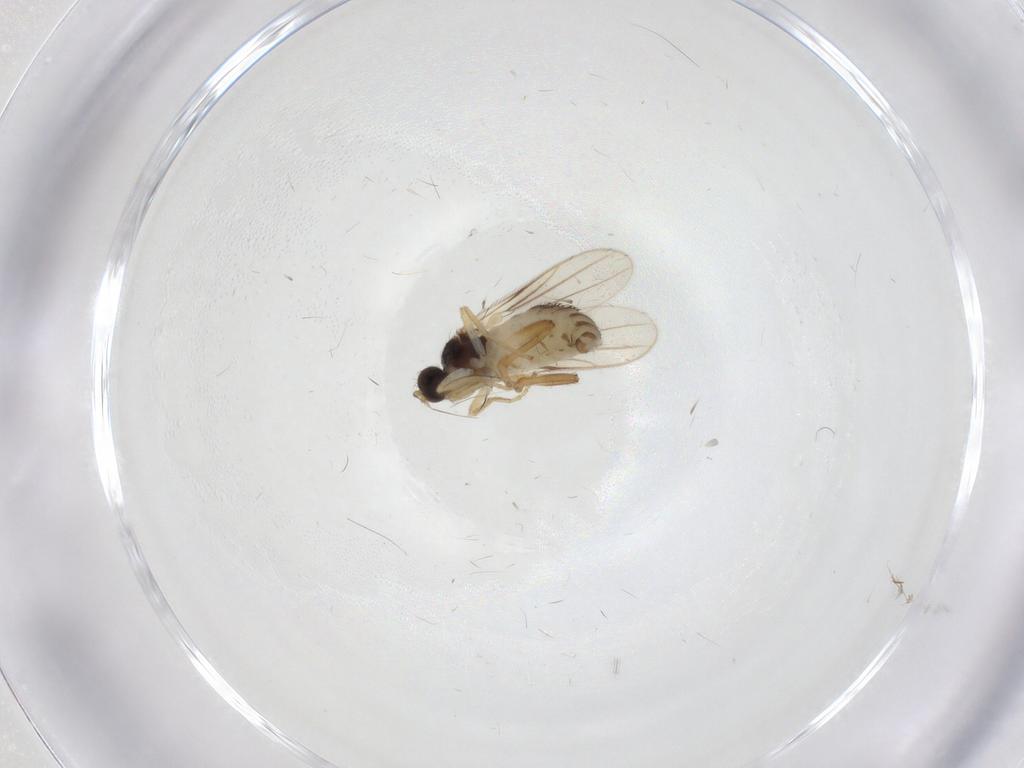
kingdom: Animalia
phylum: Arthropoda
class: Insecta
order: Diptera
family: Hybotidae
